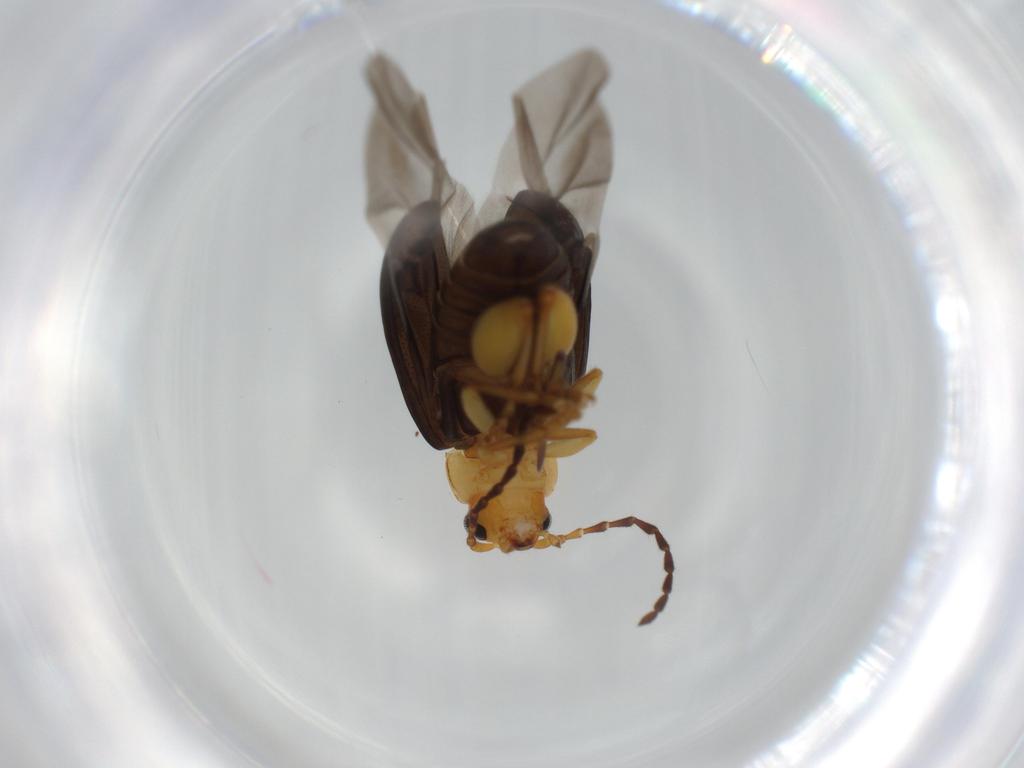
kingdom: Animalia
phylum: Arthropoda
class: Insecta
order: Coleoptera
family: Chrysomelidae
